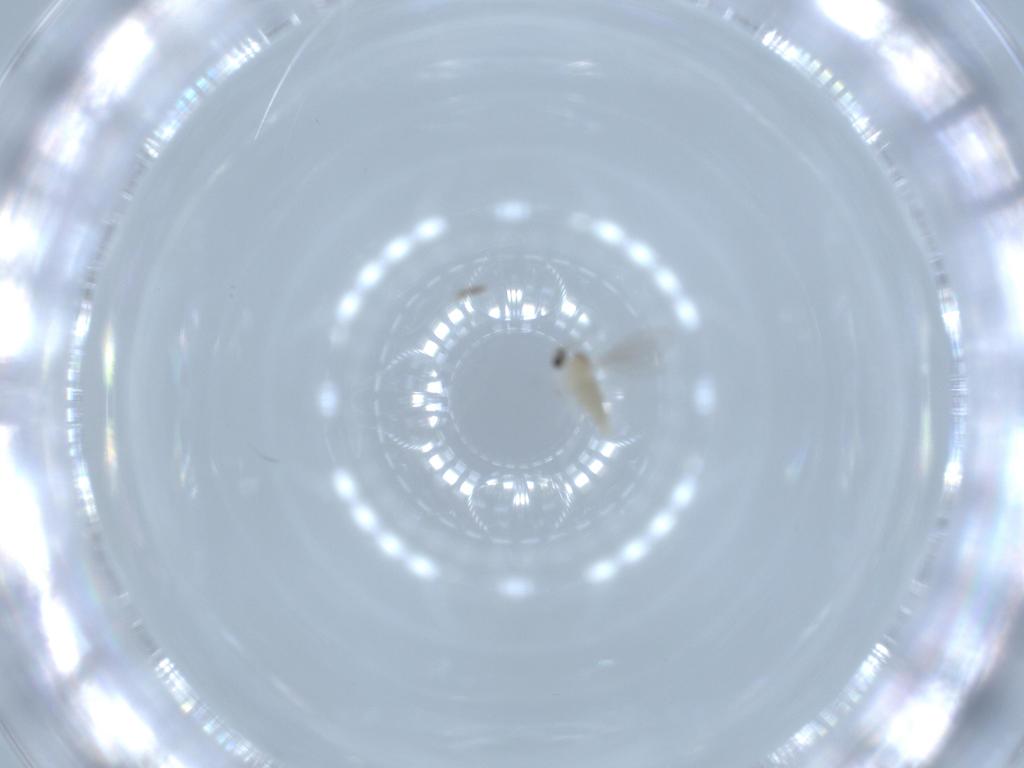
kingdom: Animalia
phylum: Arthropoda
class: Insecta
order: Diptera
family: Cecidomyiidae
